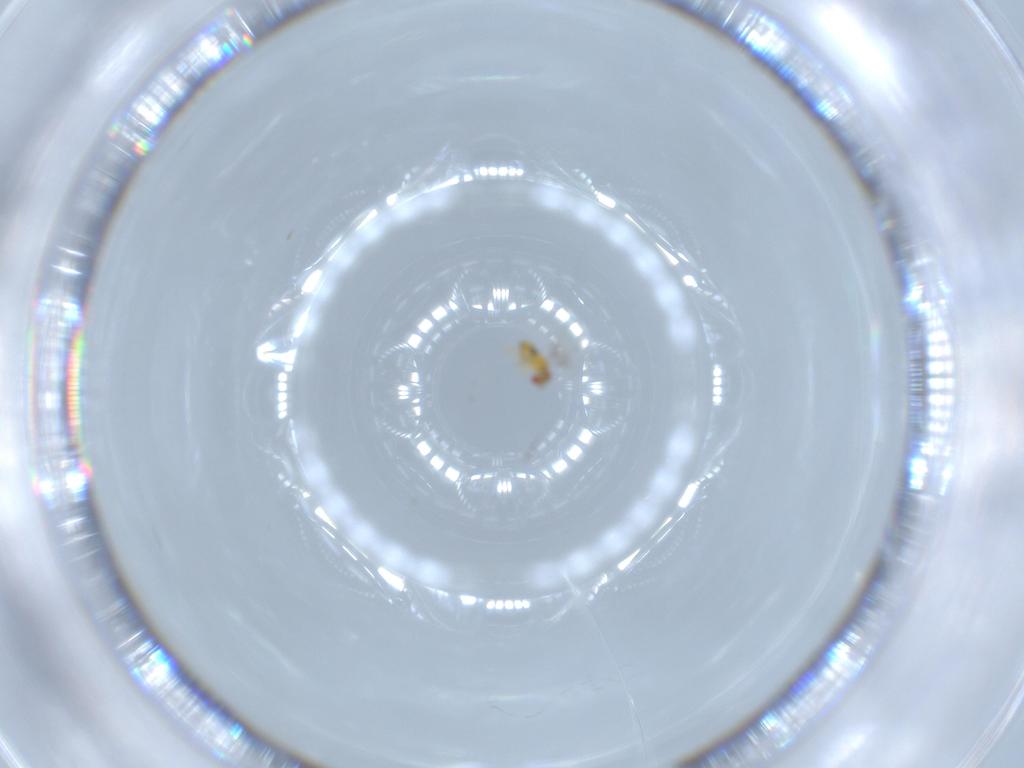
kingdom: Animalia
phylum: Arthropoda
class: Insecta
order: Hymenoptera
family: Trichogrammatidae
